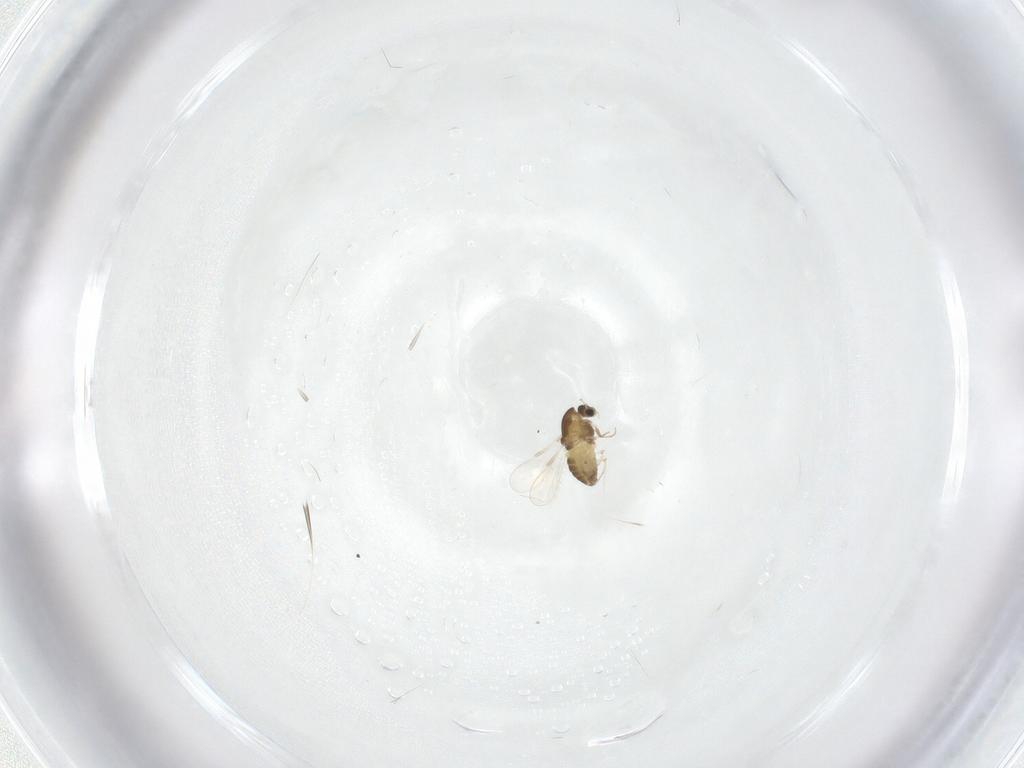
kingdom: Animalia
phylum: Arthropoda
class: Insecta
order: Diptera
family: Chironomidae
